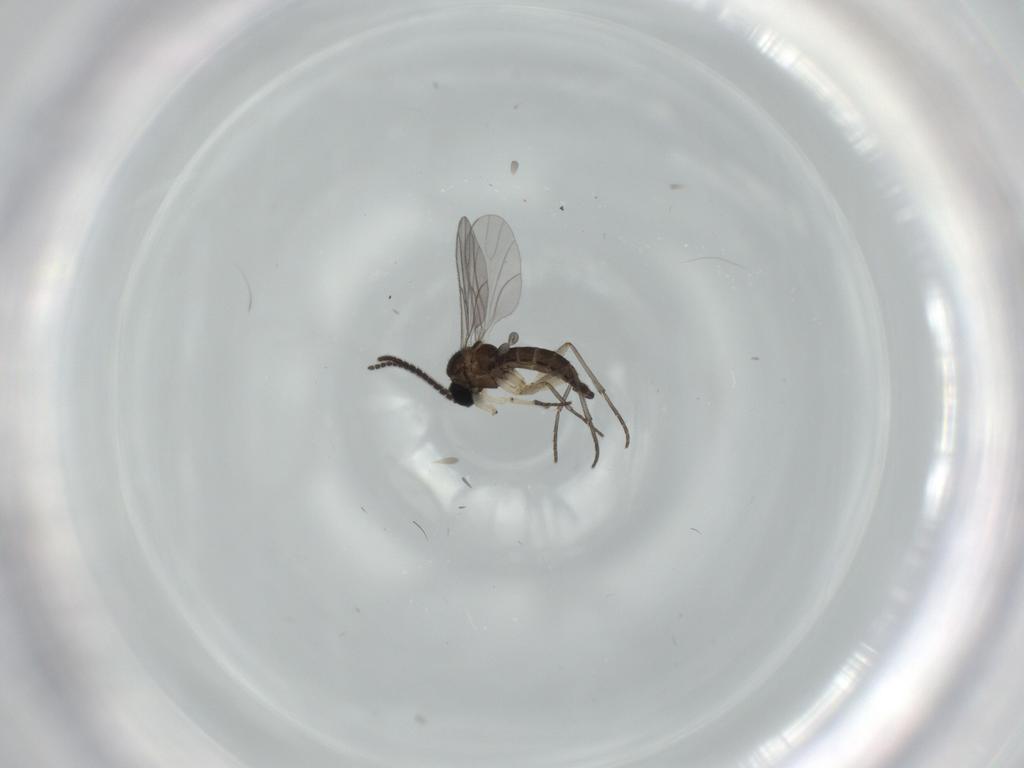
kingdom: Animalia
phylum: Arthropoda
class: Insecta
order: Diptera
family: Sciaridae
